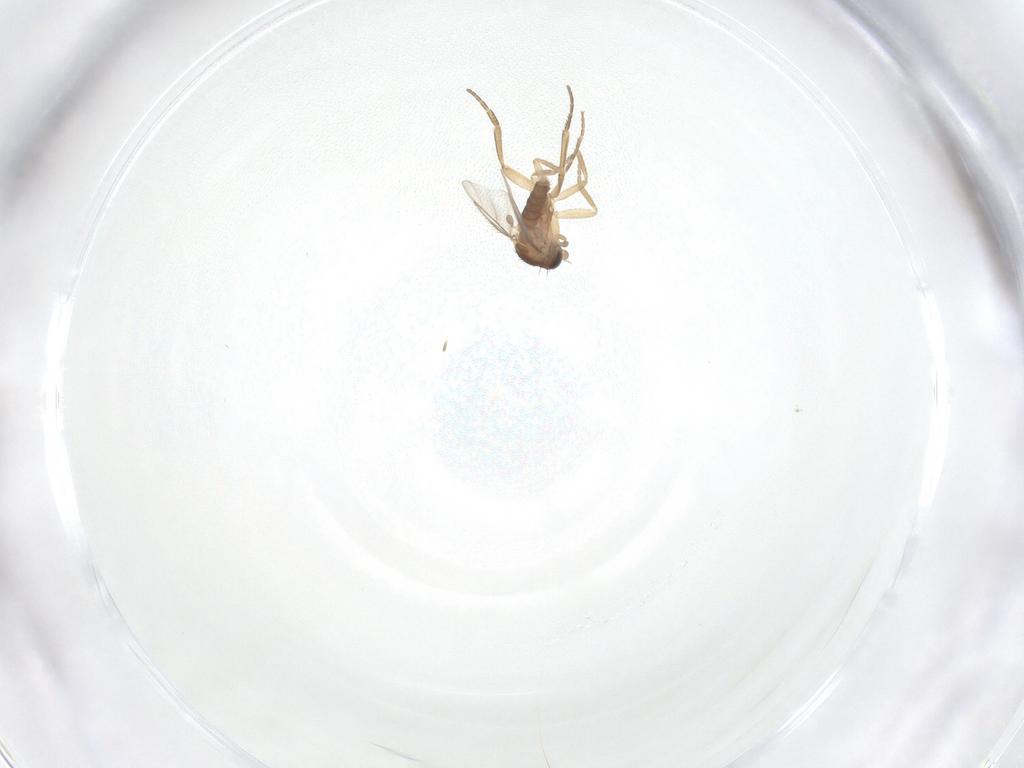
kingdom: Animalia
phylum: Arthropoda
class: Insecta
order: Diptera
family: Phoridae
